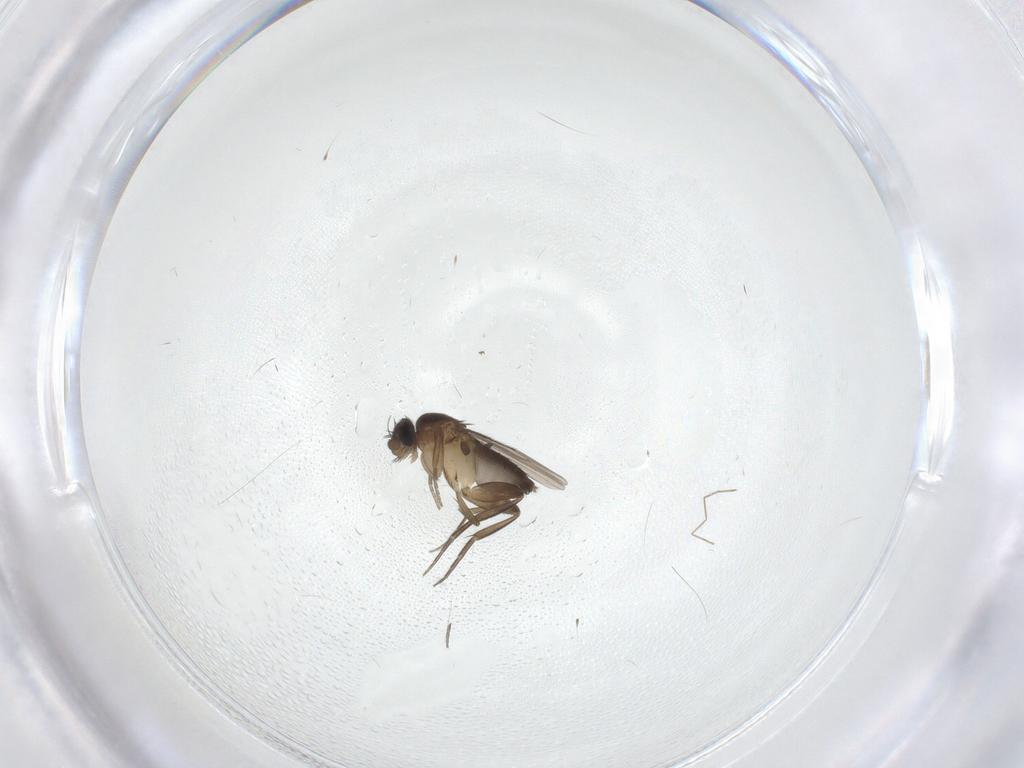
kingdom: Animalia
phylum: Arthropoda
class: Insecta
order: Diptera
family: Phoridae
